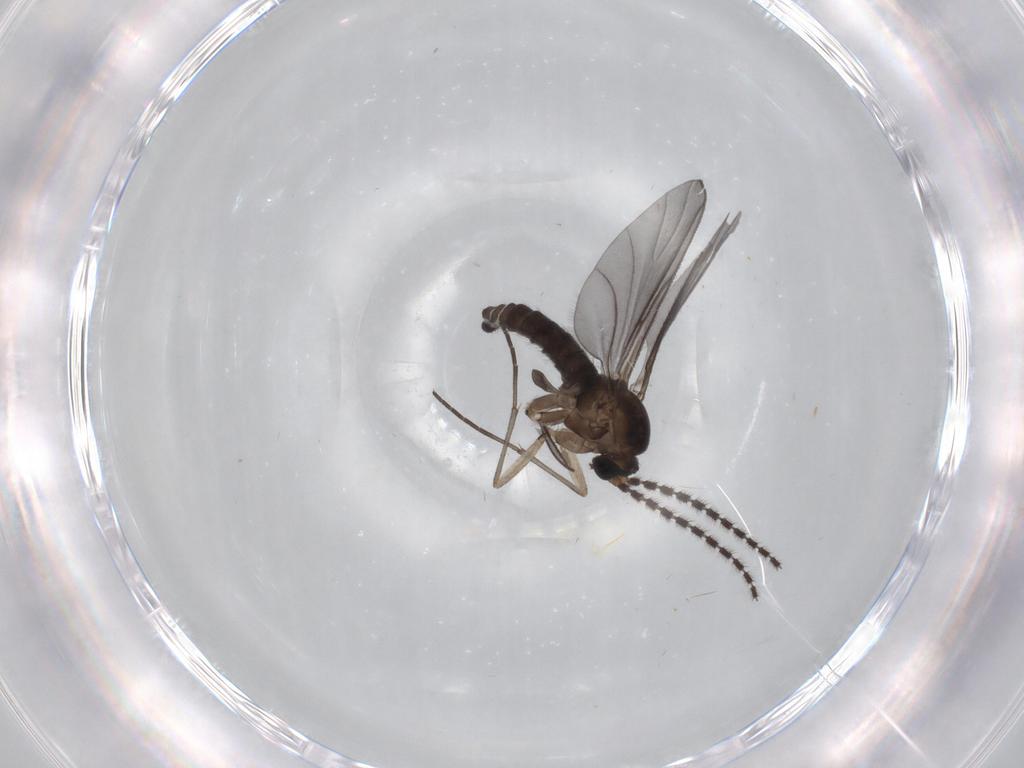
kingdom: Animalia
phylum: Arthropoda
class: Insecta
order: Diptera
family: Sciaridae
